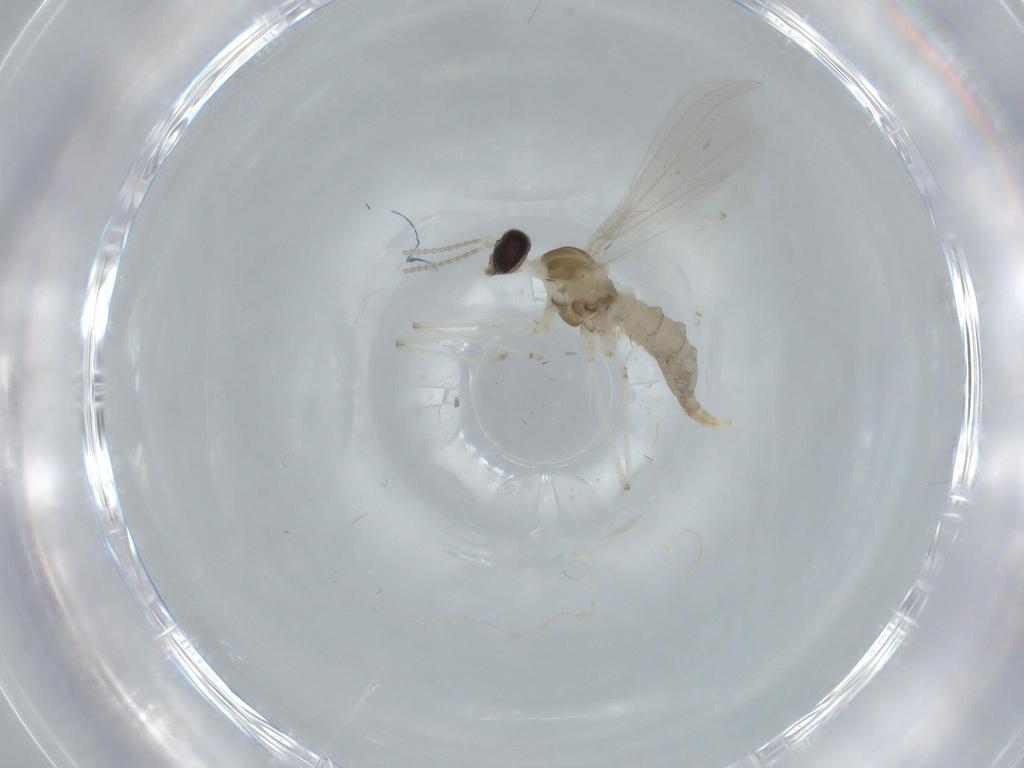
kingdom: Animalia
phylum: Arthropoda
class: Insecta
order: Diptera
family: Cecidomyiidae
